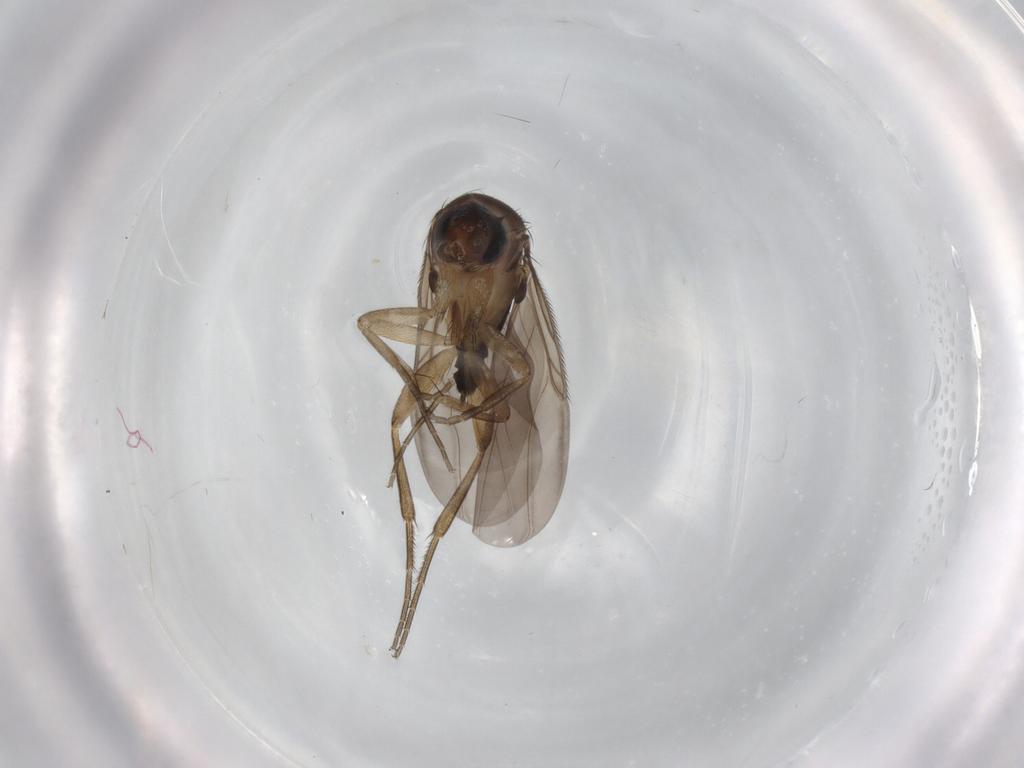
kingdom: Animalia
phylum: Arthropoda
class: Insecta
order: Diptera
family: Phoridae
